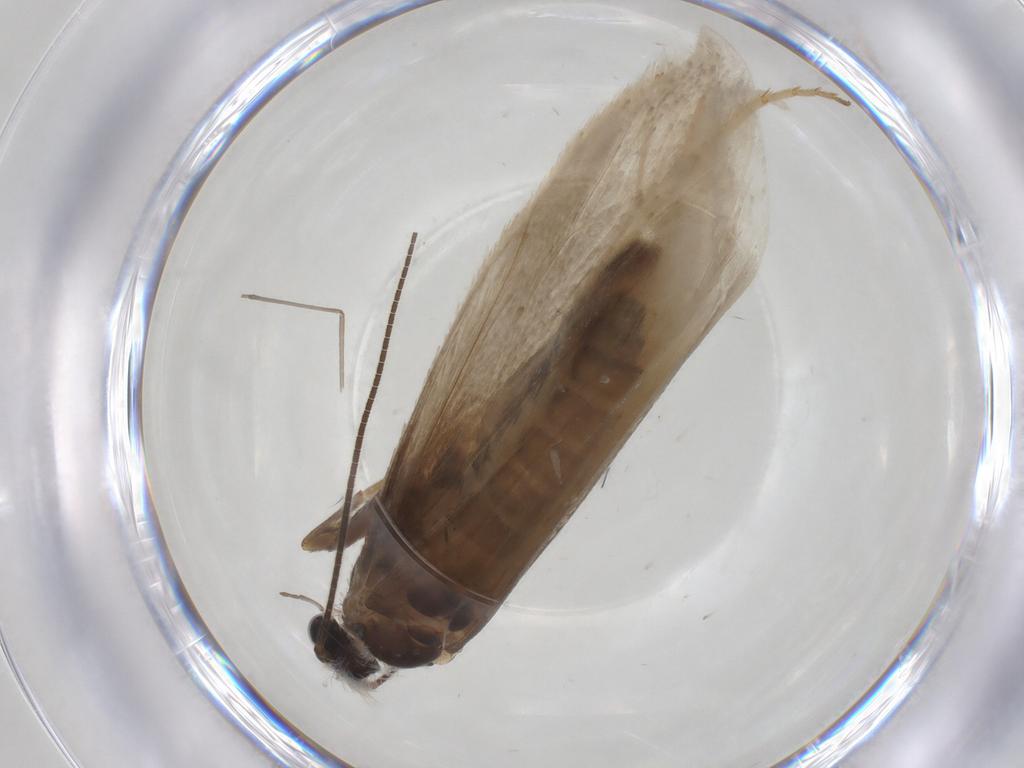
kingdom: Animalia
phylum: Arthropoda
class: Insecta
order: Lepidoptera
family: Tridentaformidae
